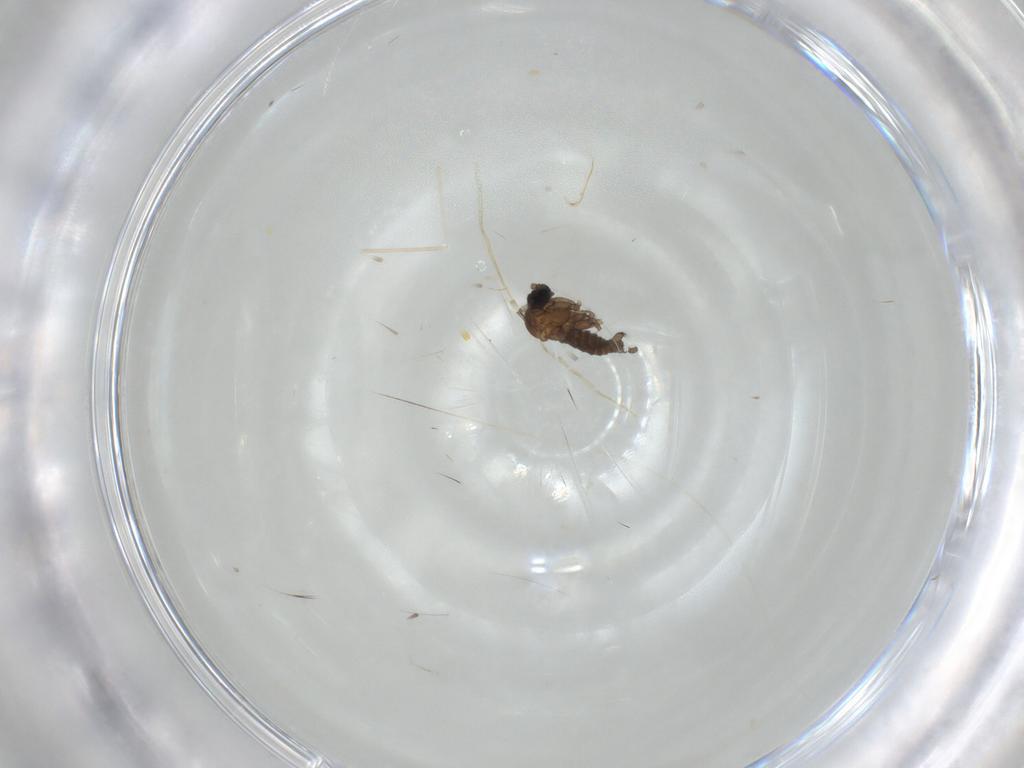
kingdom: Animalia
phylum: Arthropoda
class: Insecta
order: Diptera
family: Sciaridae
